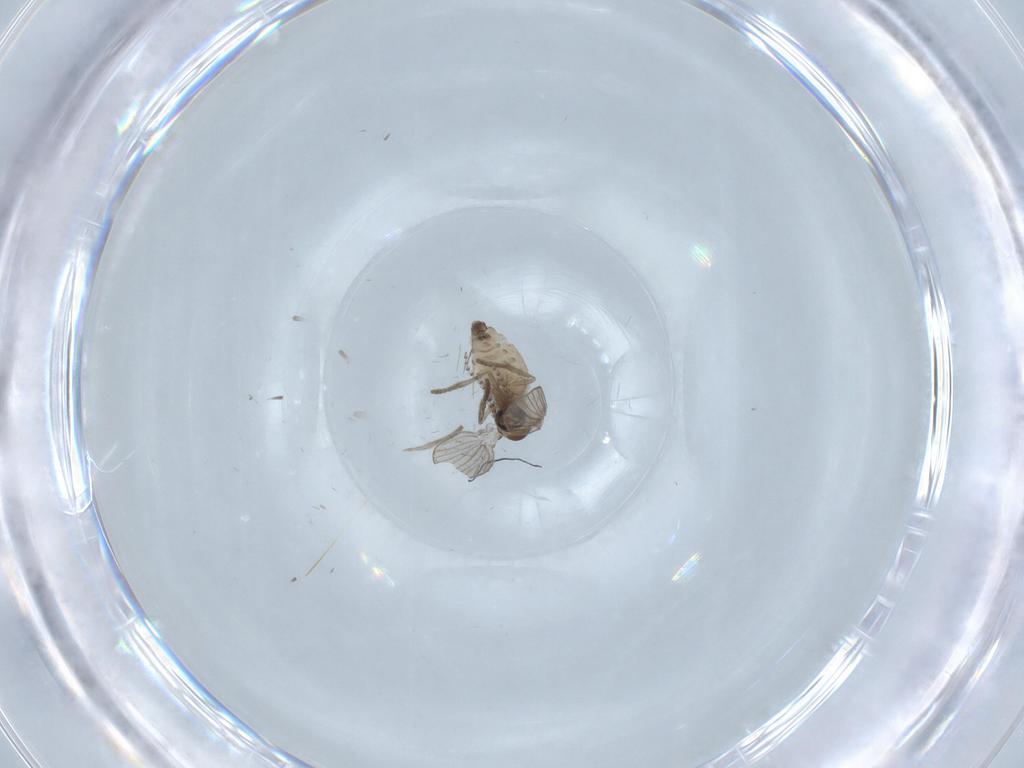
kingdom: Animalia
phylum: Arthropoda
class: Insecta
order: Diptera
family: Psychodidae
